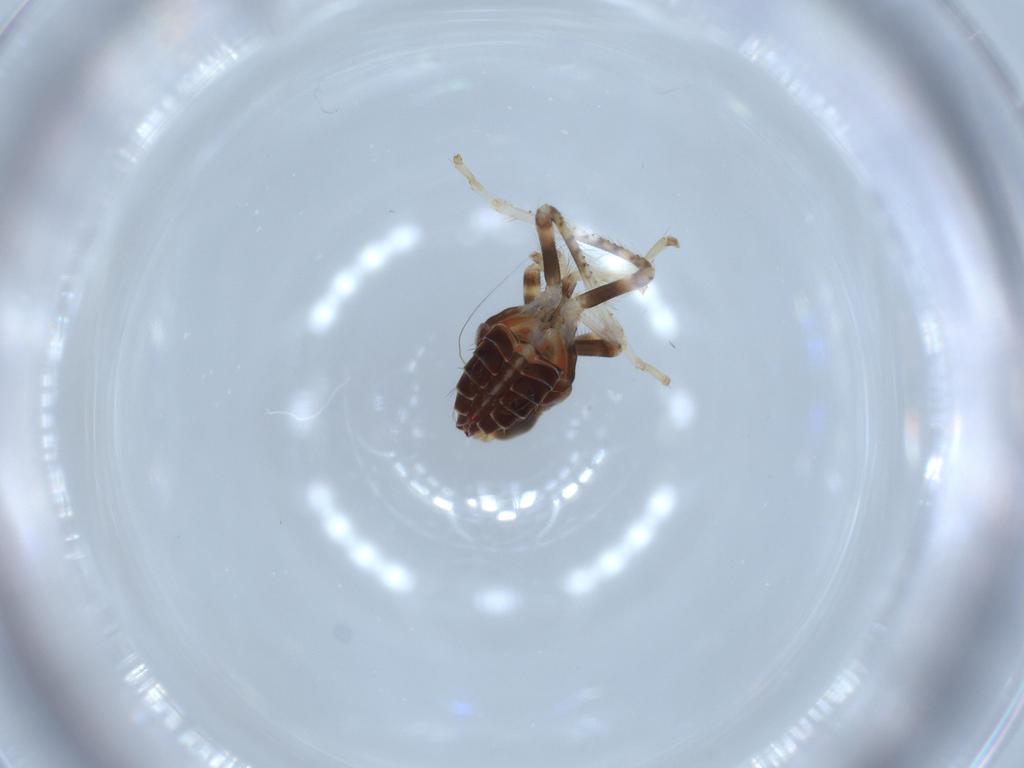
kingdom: Animalia
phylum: Arthropoda
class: Insecta
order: Hemiptera
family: Cicadellidae
